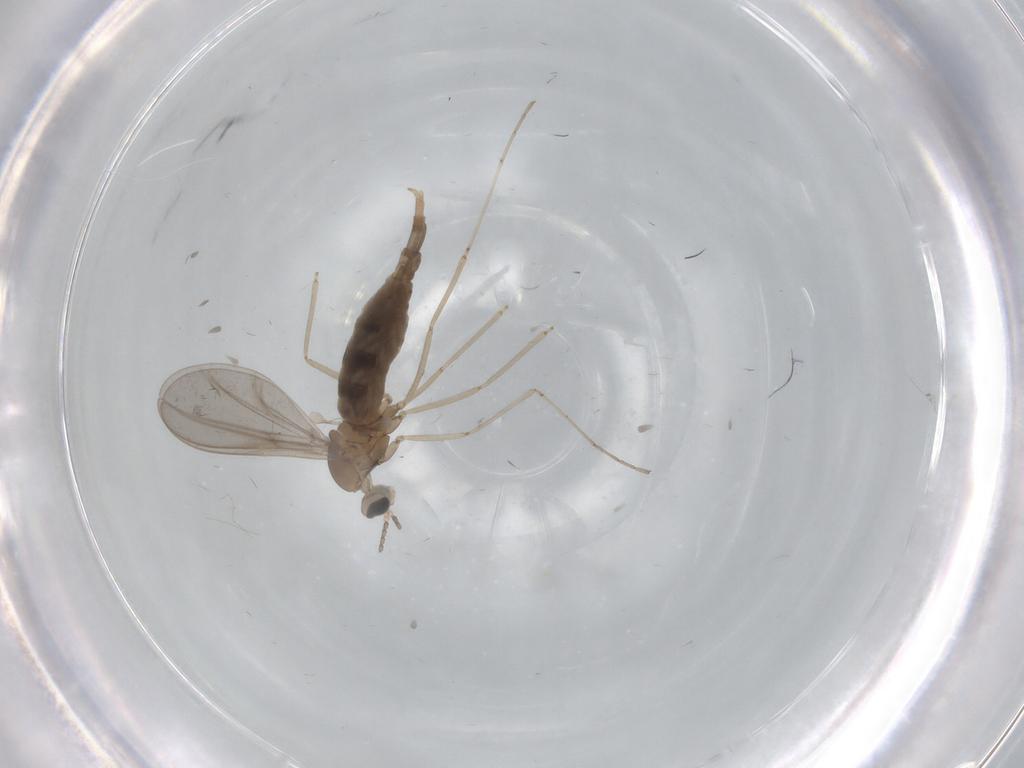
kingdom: Animalia
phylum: Arthropoda
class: Insecta
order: Diptera
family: Cecidomyiidae
